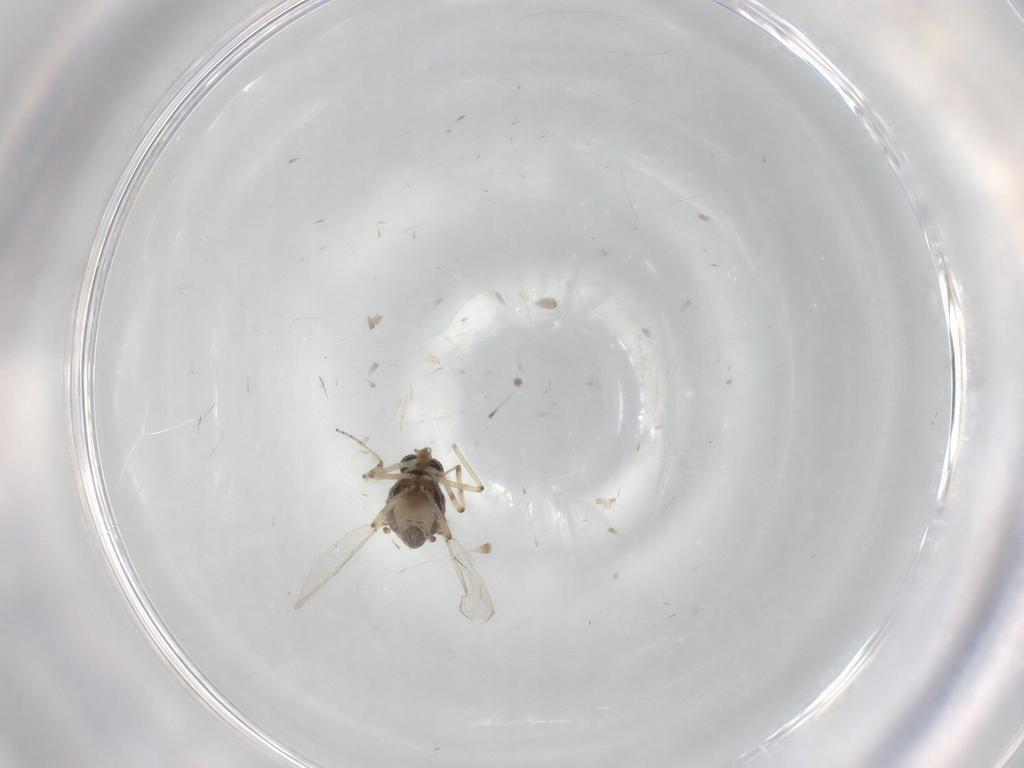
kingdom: Animalia
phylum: Arthropoda
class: Insecta
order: Diptera
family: Ceratopogonidae
